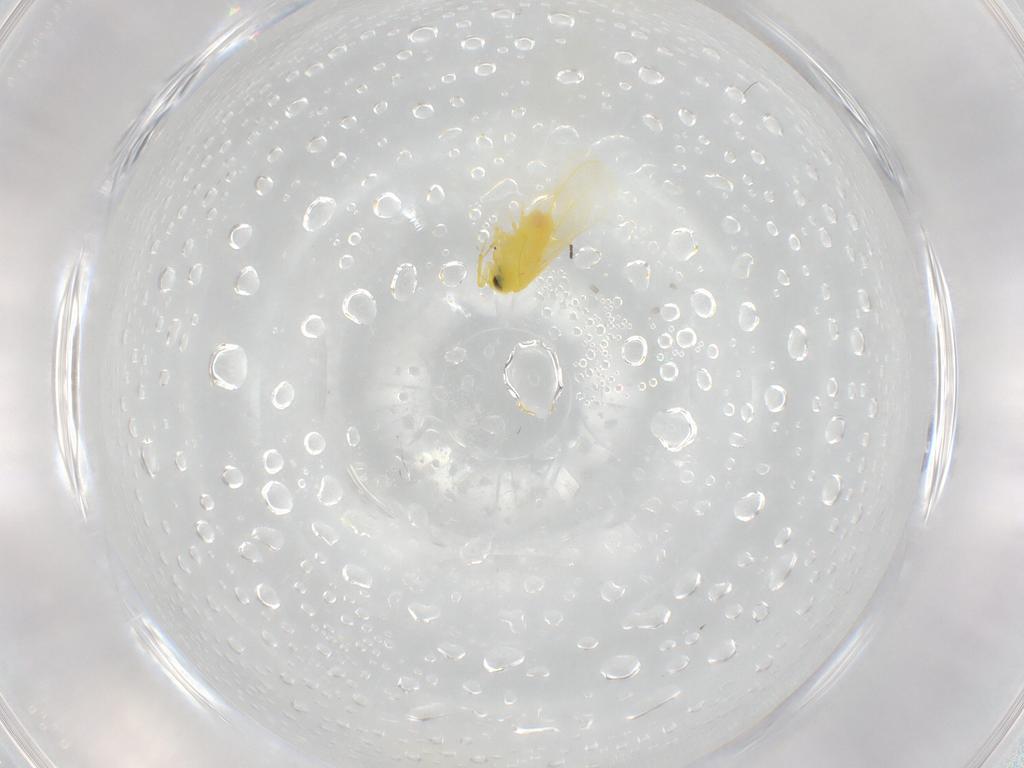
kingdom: Animalia
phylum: Arthropoda
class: Insecta
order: Hemiptera
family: Aleyrodidae
